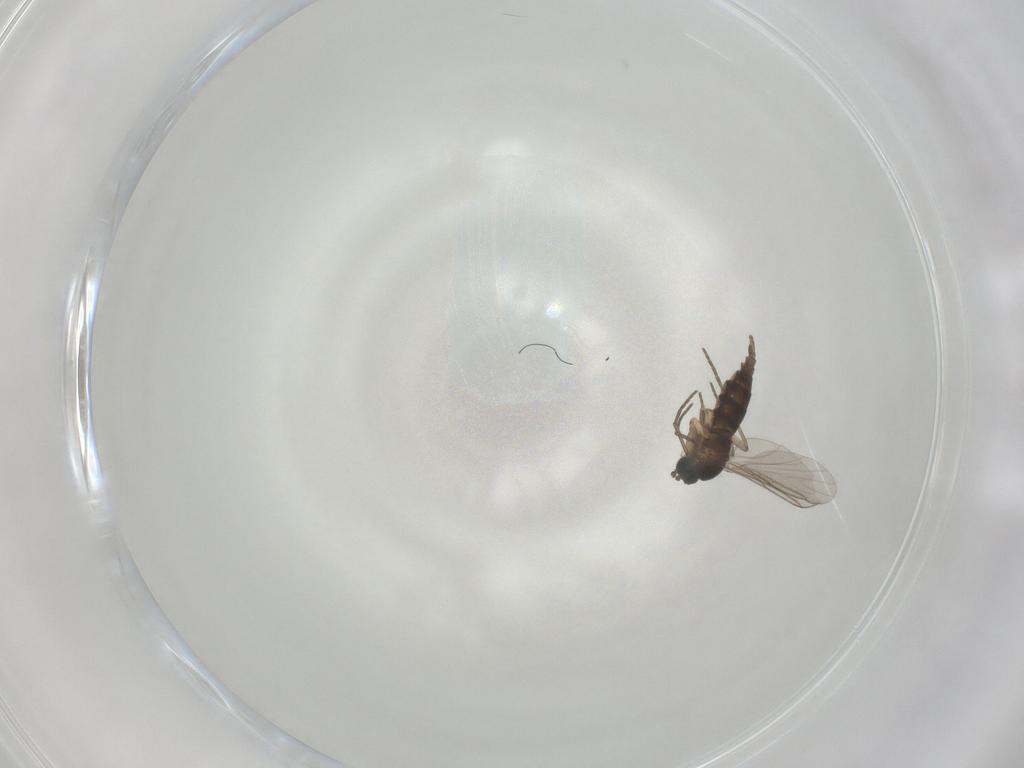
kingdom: Animalia
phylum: Arthropoda
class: Insecta
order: Diptera
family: Sciaridae
